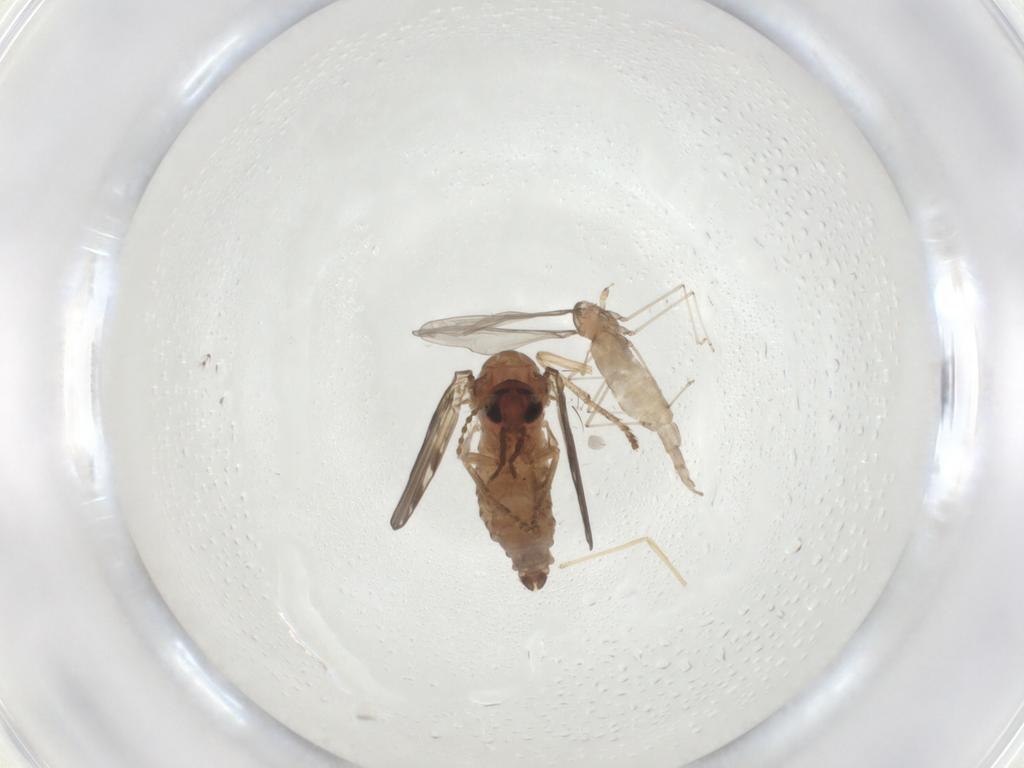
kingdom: Animalia
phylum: Arthropoda
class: Insecta
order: Diptera
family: Psychodidae
